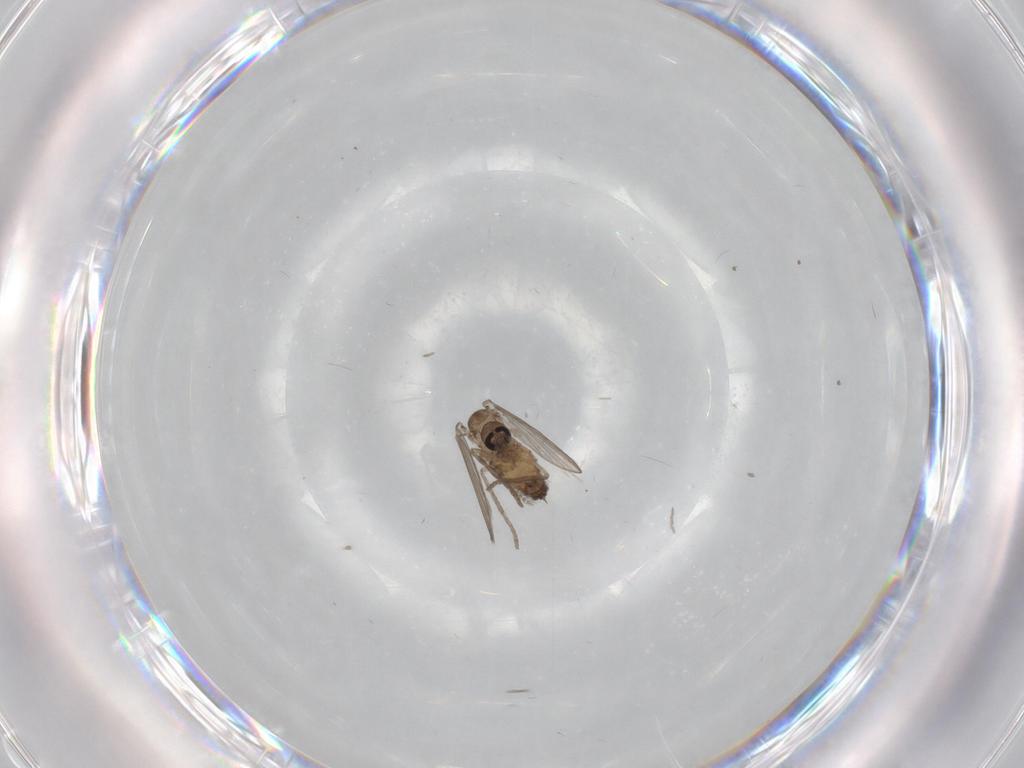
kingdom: Animalia
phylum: Arthropoda
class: Insecta
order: Diptera
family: Psychodidae
